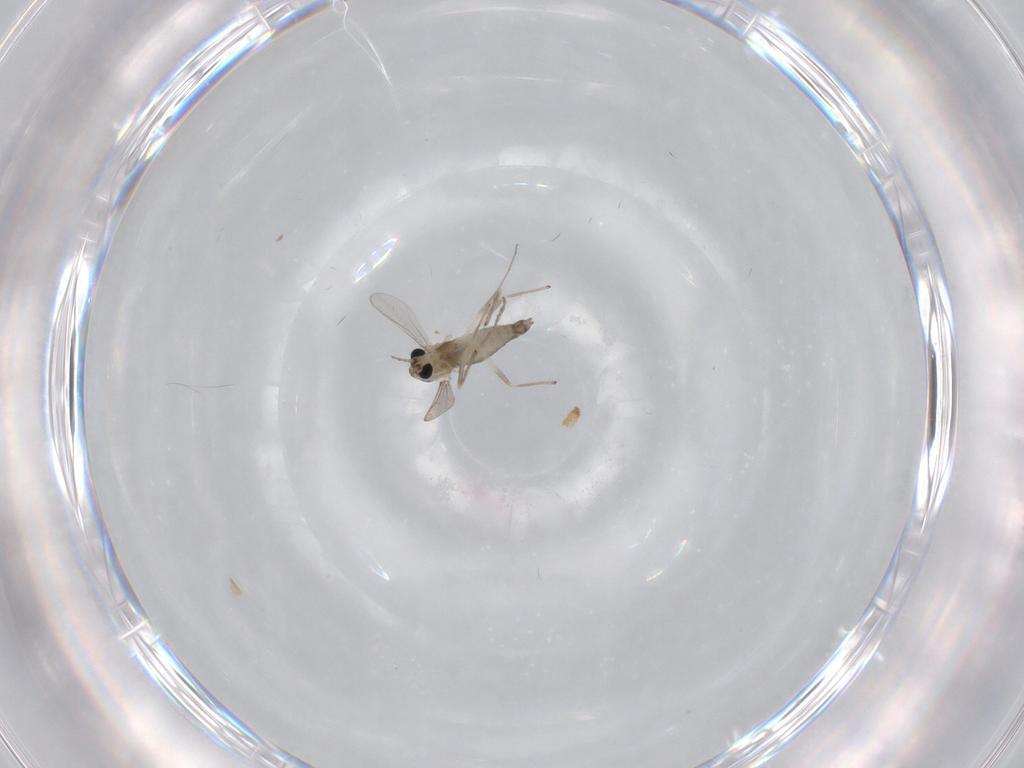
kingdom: Animalia
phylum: Arthropoda
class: Insecta
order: Diptera
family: Chironomidae
